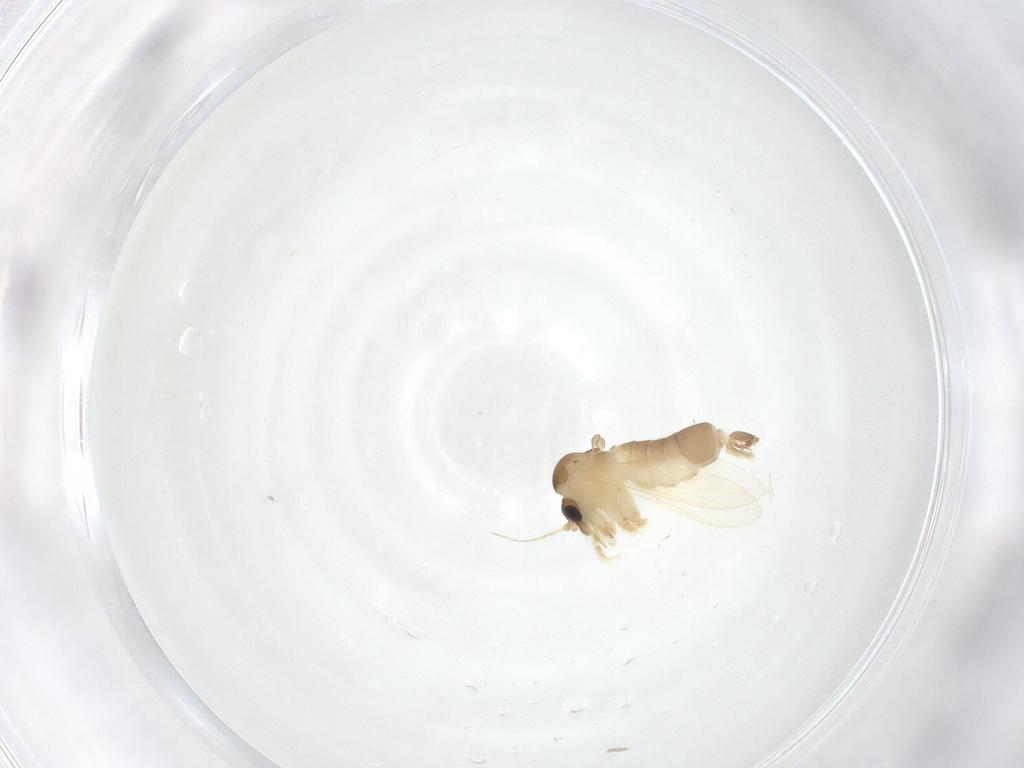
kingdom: Animalia
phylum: Arthropoda
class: Insecta
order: Diptera
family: Psychodidae
